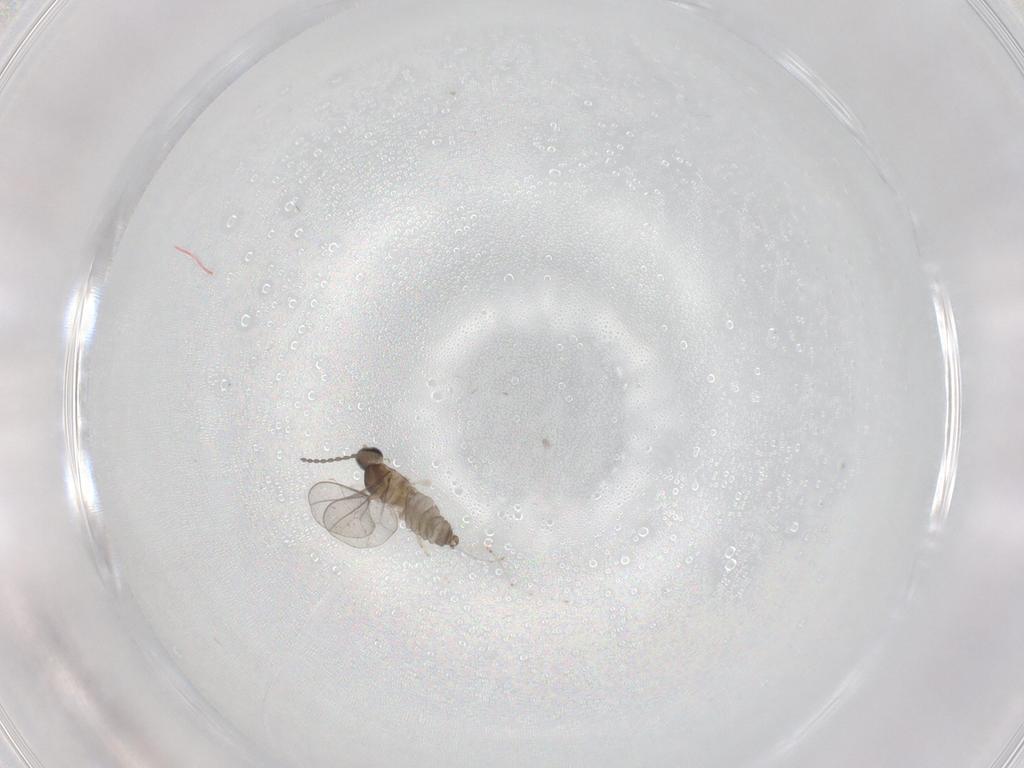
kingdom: Animalia
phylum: Arthropoda
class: Insecta
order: Diptera
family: Cecidomyiidae
